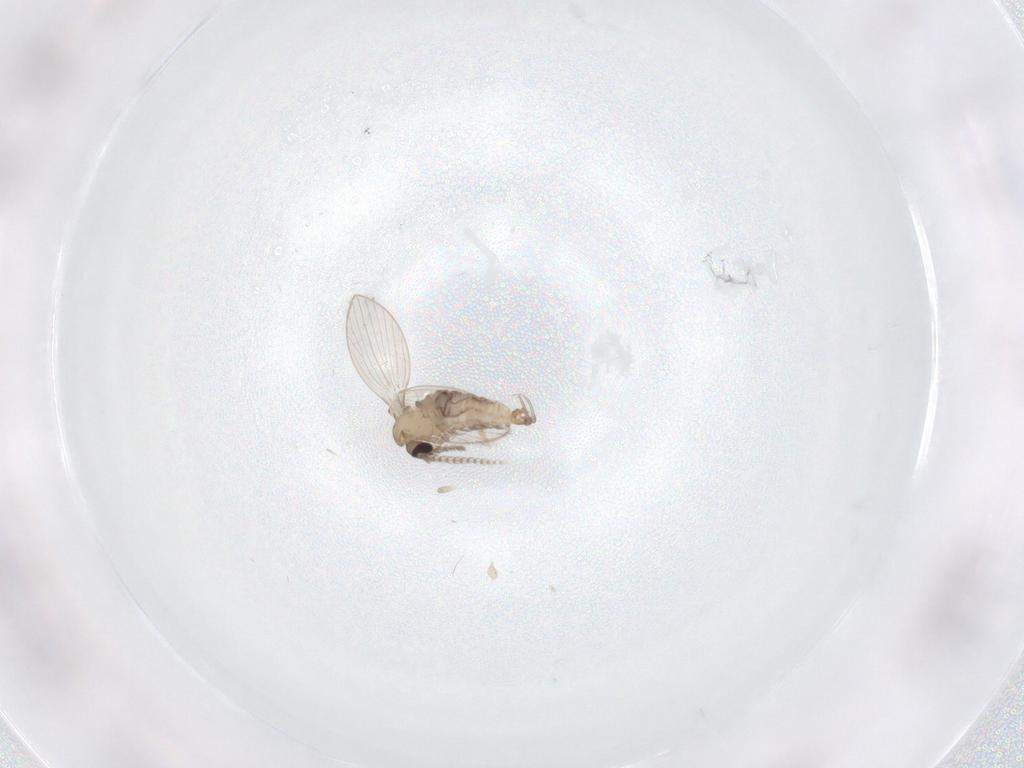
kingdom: Animalia
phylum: Arthropoda
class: Insecta
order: Diptera
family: Psychodidae
